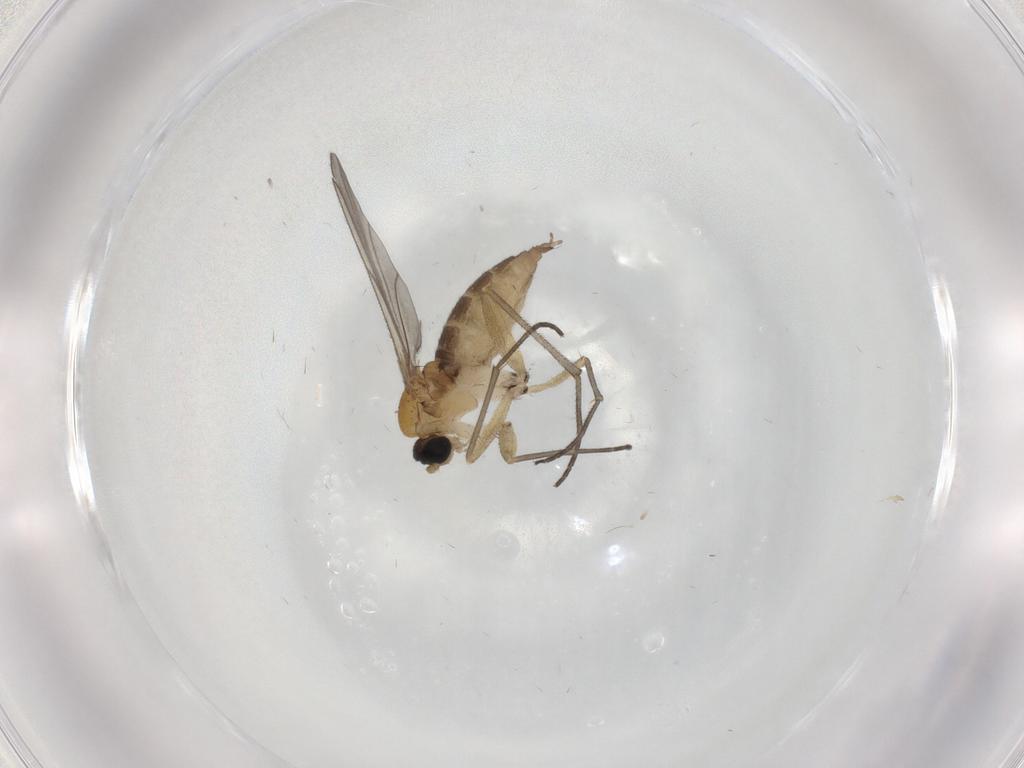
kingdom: Animalia
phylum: Arthropoda
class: Insecta
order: Diptera
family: Sciaridae
